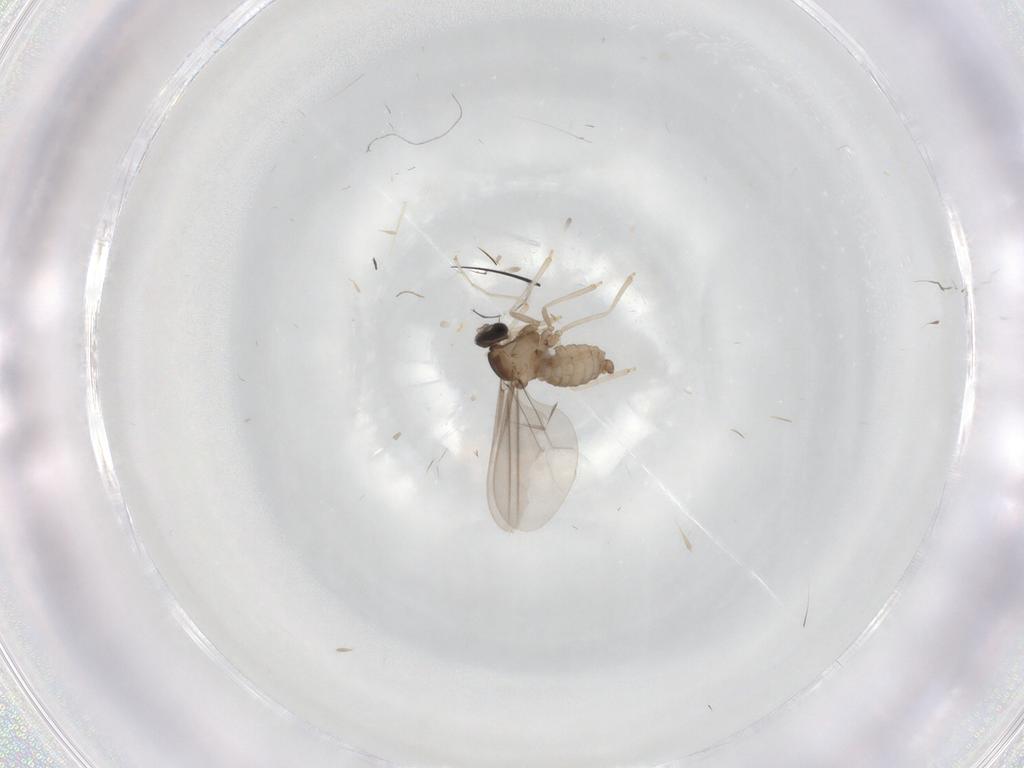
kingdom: Animalia
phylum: Arthropoda
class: Insecta
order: Diptera
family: Cecidomyiidae
